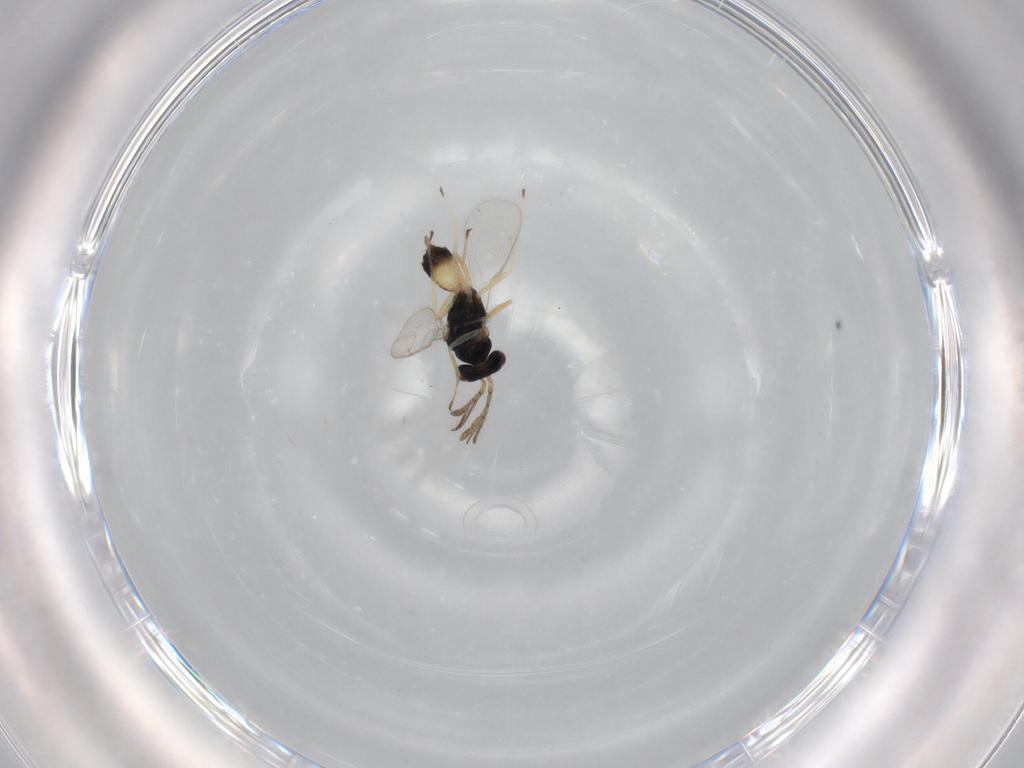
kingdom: Animalia
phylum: Arthropoda
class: Insecta
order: Hymenoptera
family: Eulophidae
